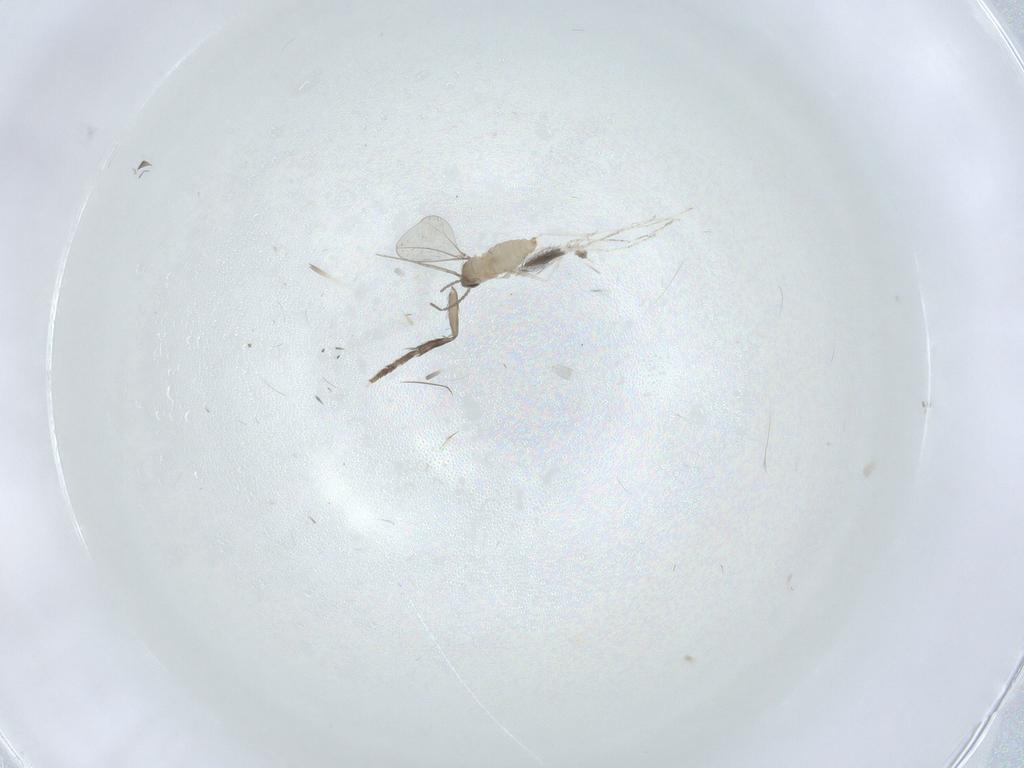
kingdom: Animalia
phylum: Arthropoda
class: Insecta
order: Diptera
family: Cecidomyiidae
